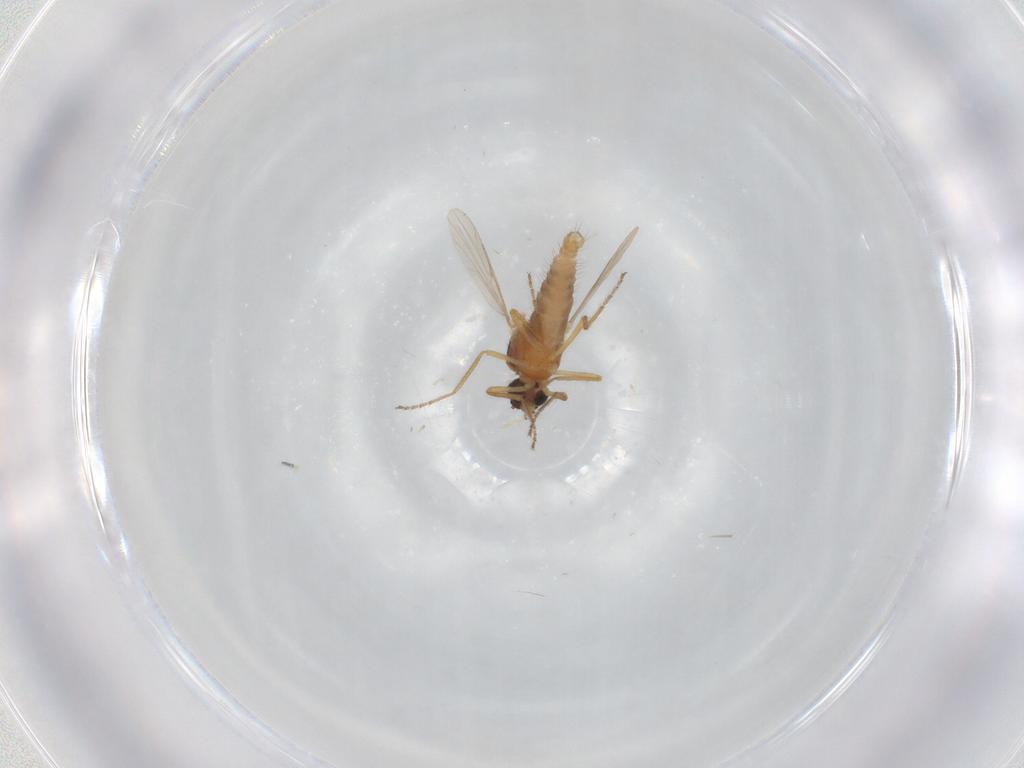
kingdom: Animalia
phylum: Arthropoda
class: Insecta
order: Diptera
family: Ceratopogonidae
